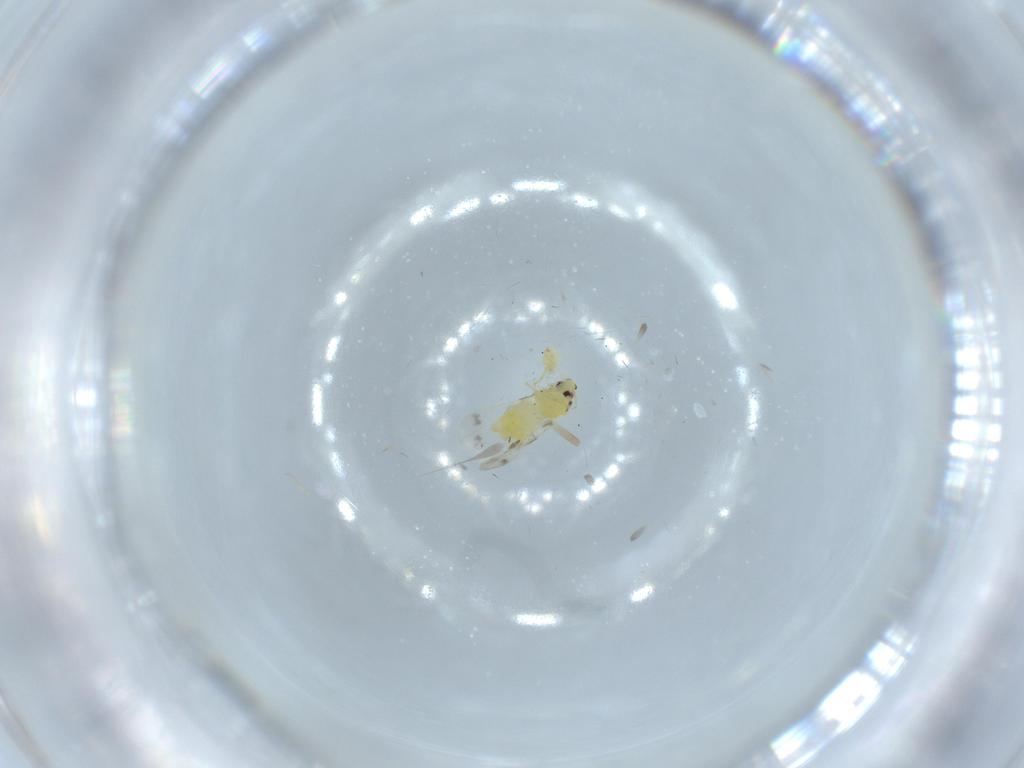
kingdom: Animalia
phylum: Arthropoda
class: Insecta
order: Hemiptera
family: Aleyrodidae
